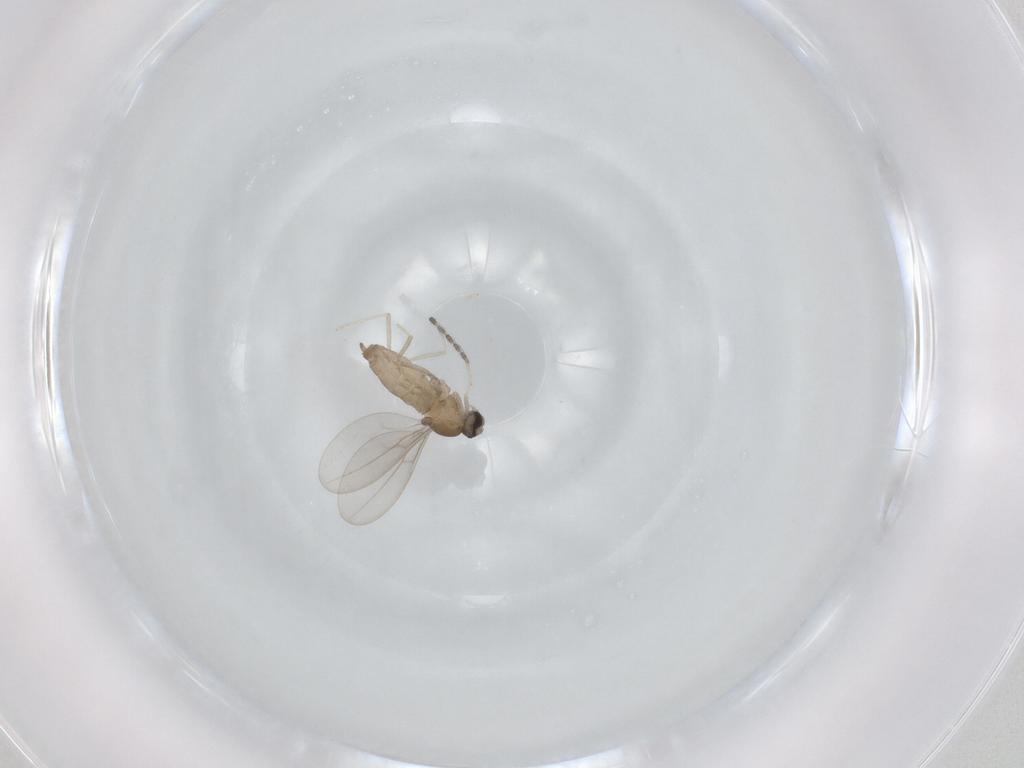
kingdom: Animalia
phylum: Arthropoda
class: Insecta
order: Diptera
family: Cecidomyiidae
